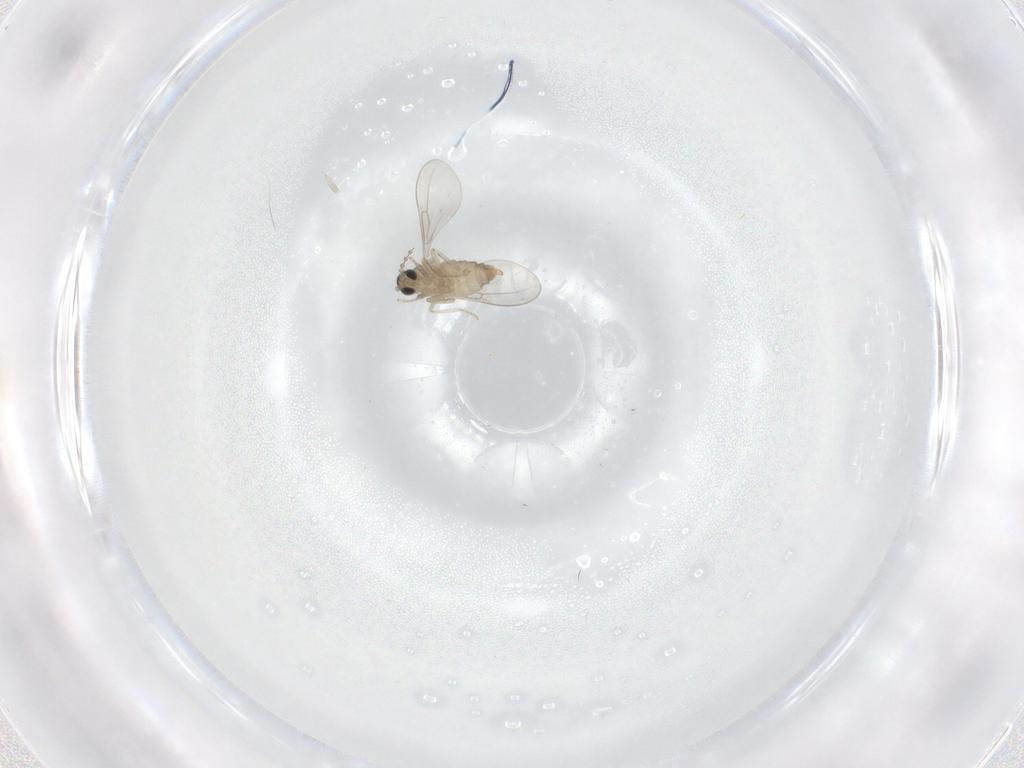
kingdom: Animalia
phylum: Arthropoda
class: Insecta
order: Diptera
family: Cecidomyiidae
